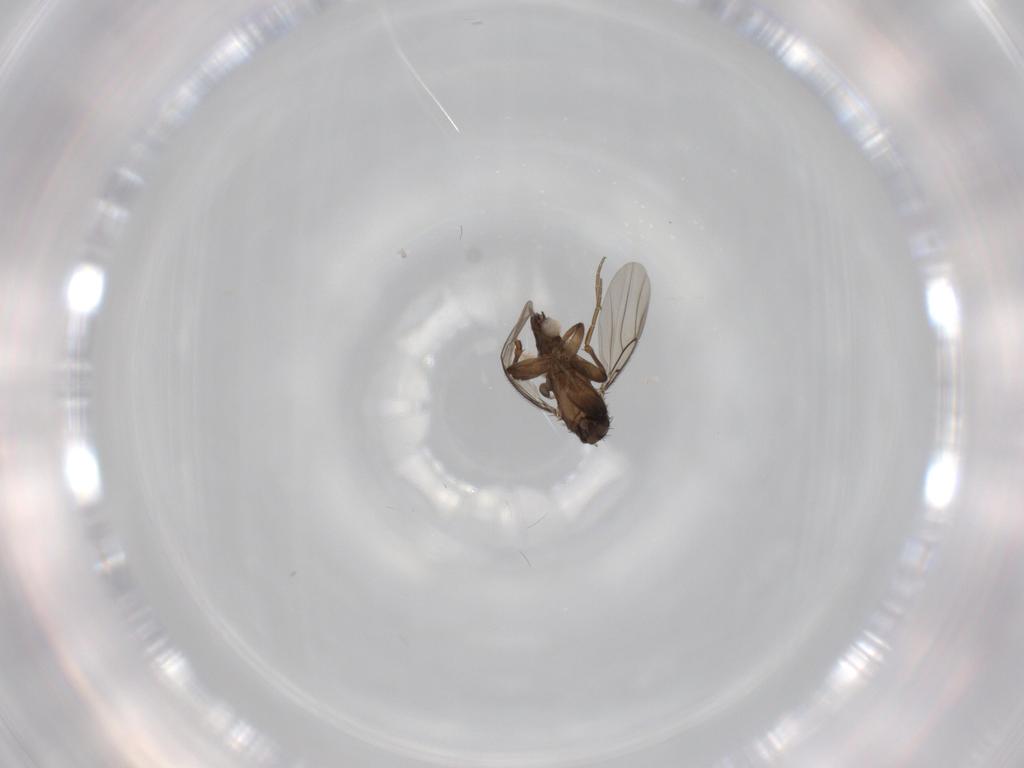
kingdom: Animalia
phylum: Arthropoda
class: Insecta
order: Diptera
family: Phoridae
